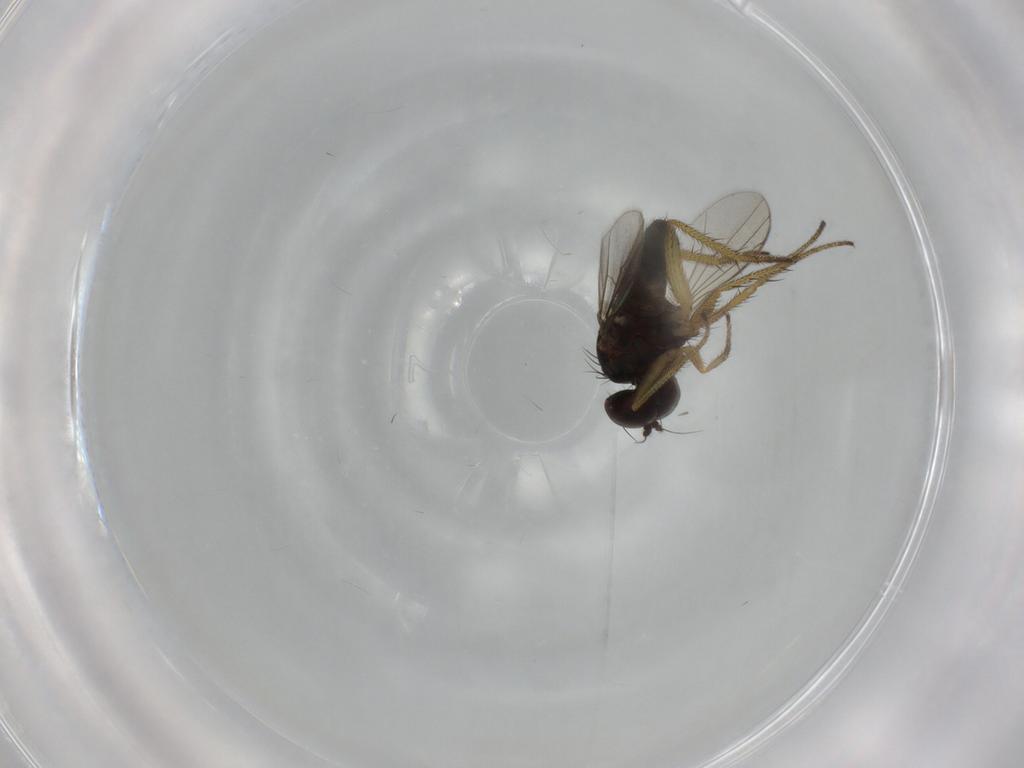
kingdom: Animalia
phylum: Arthropoda
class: Insecta
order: Diptera
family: Dolichopodidae
